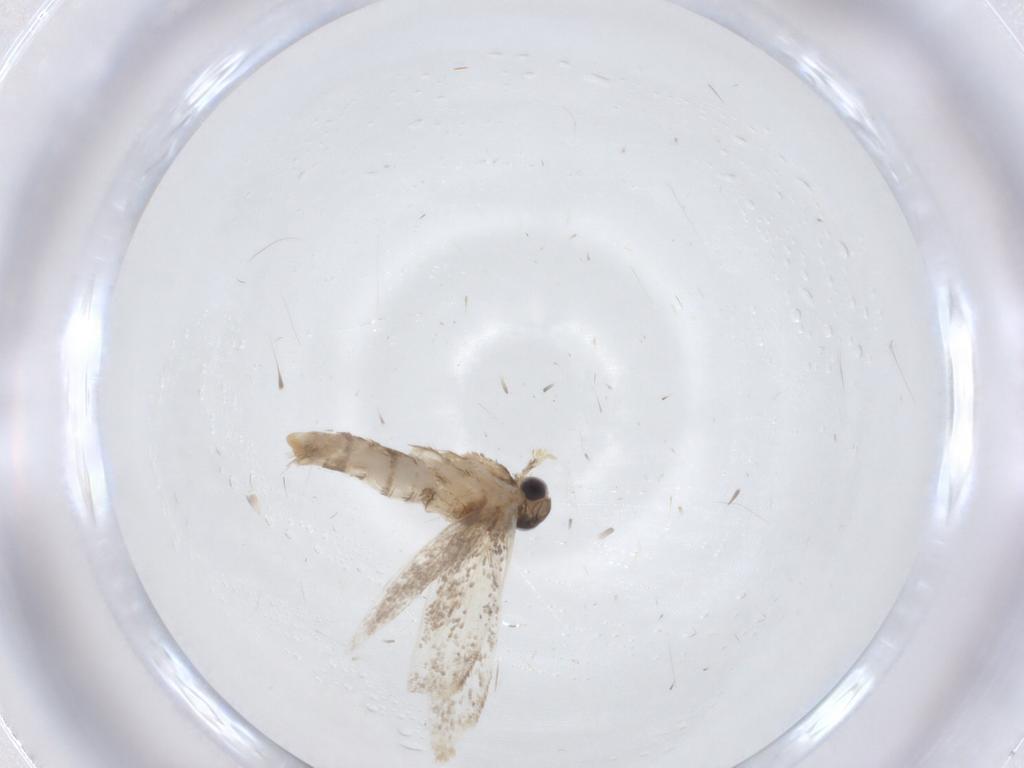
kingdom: Animalia
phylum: Arthropoda
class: Insecta
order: Lepidoptera
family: Dryadaulidae
